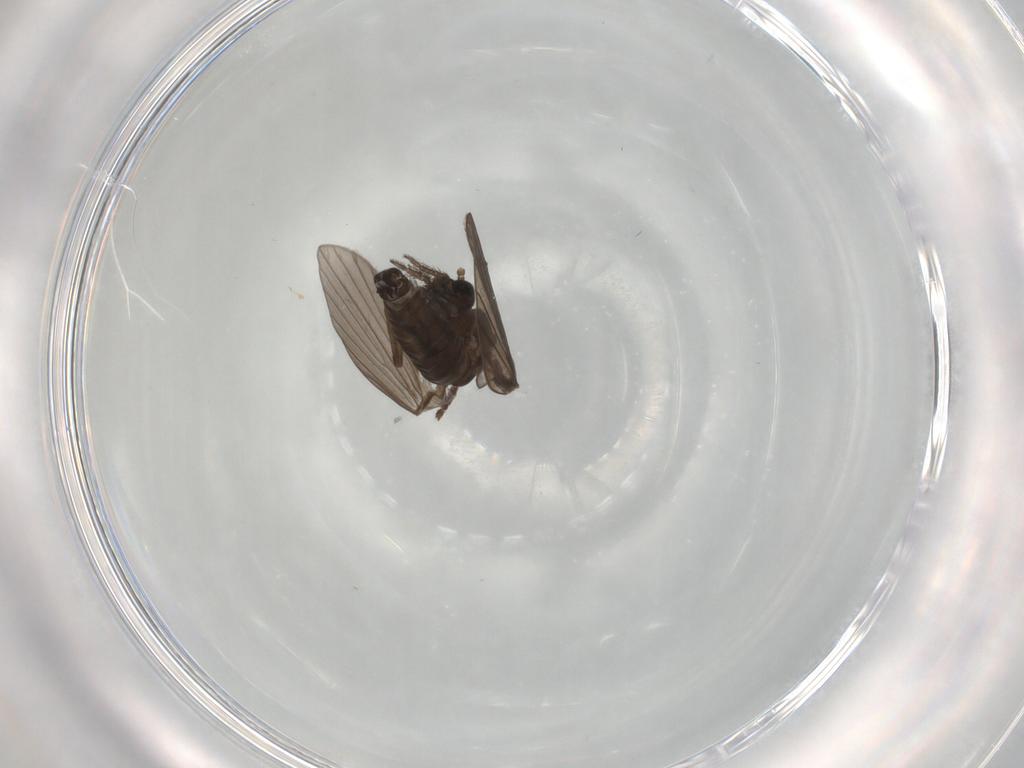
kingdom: Animalia
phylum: Arthropoda
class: Insecta
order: Diptera
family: Psychodidae
